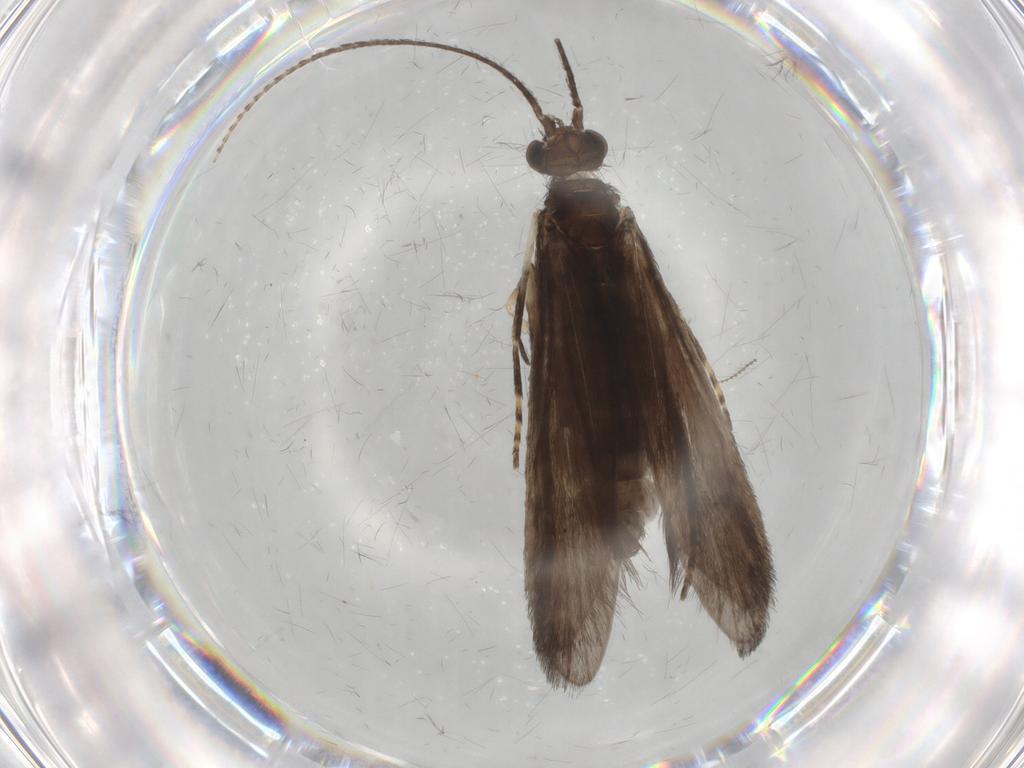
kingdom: Animalia
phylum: Arthropoda
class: Insecta
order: Trichoptera
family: Xiphocentronidae
